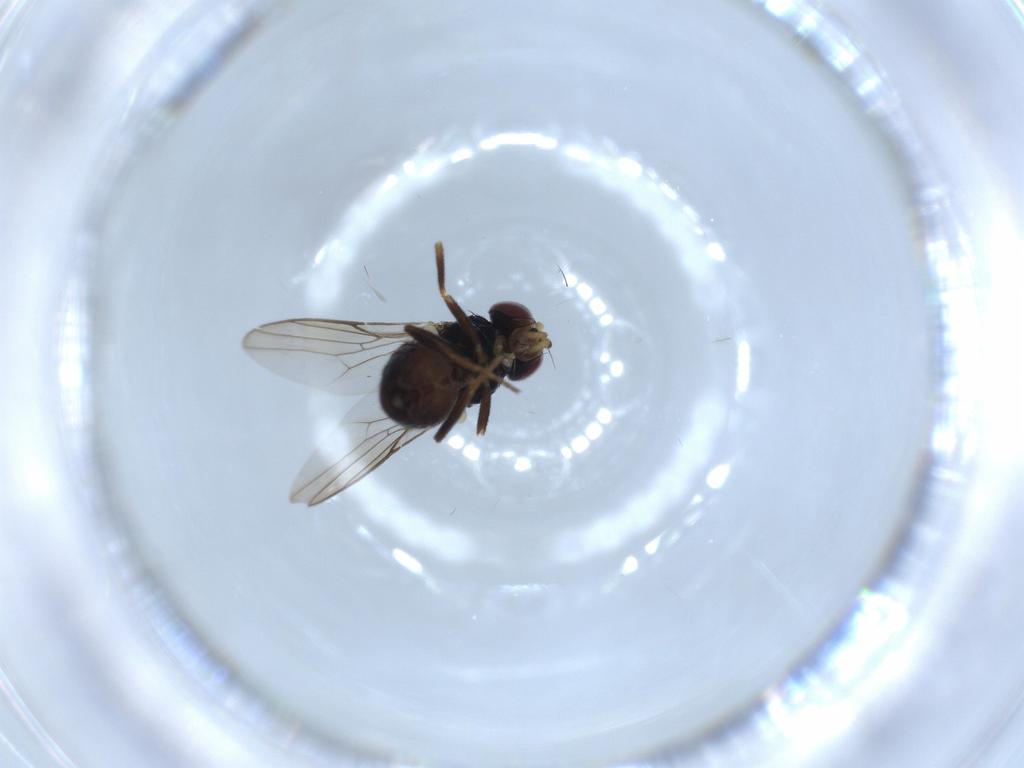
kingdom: Animalia
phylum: Arthropoda
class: Insecta
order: Diptera
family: Chloropidae
